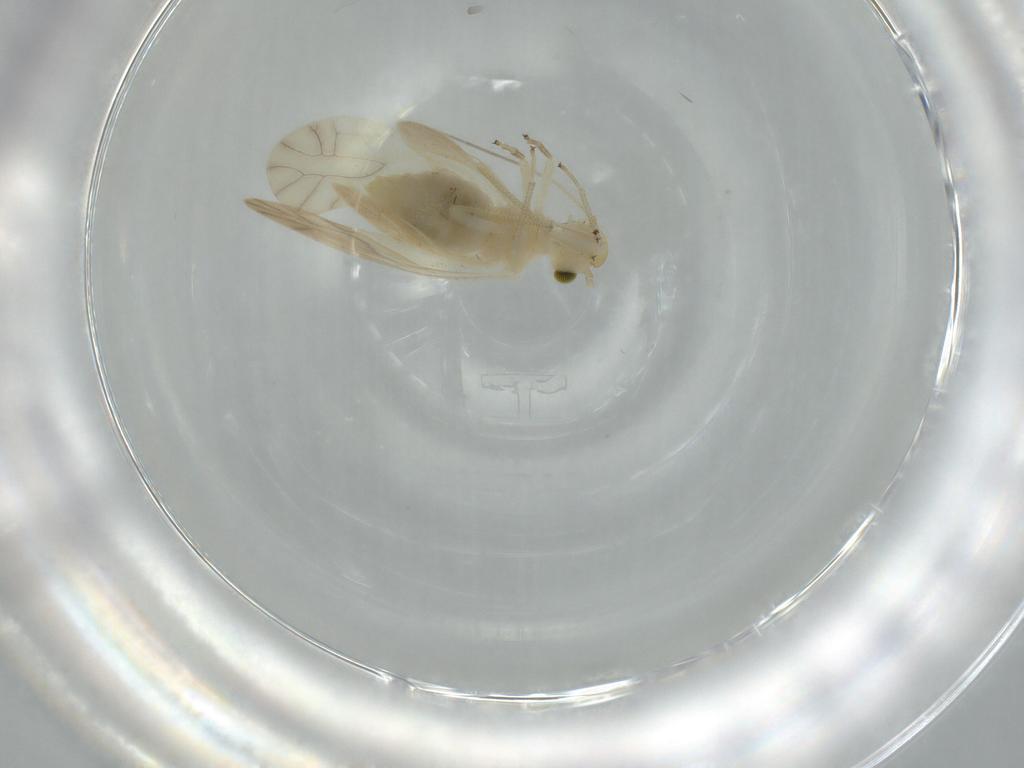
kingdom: Animalia
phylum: Arthropoda
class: Insecta
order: Psocodea
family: Caeciliusidae
